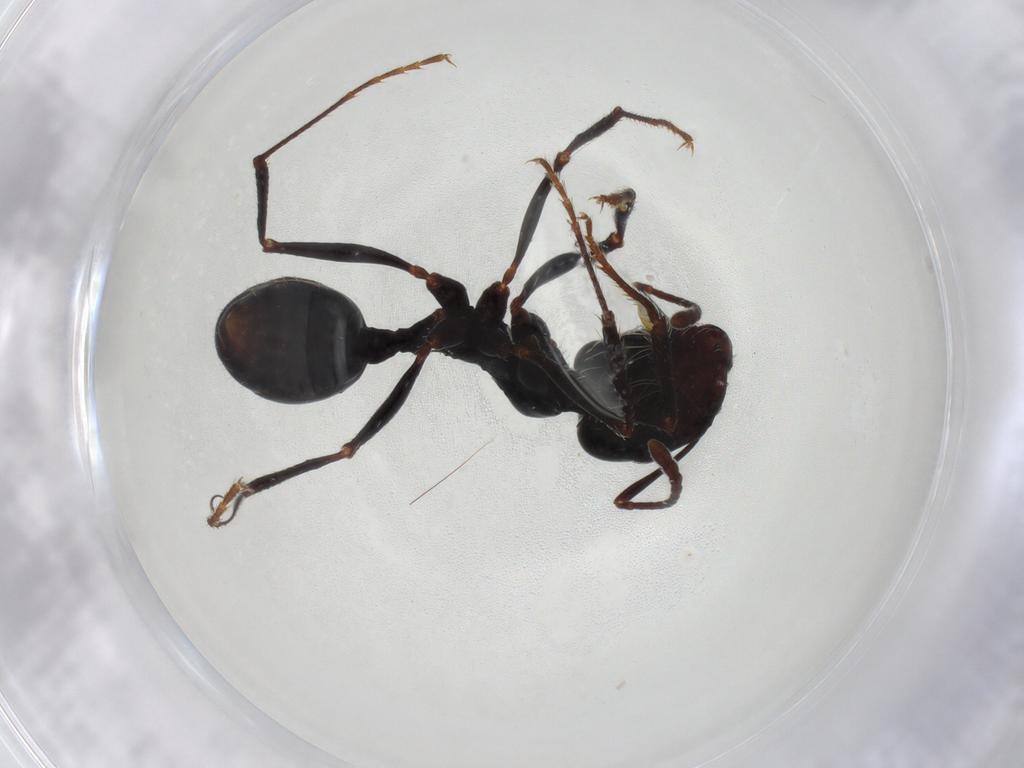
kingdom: Animalia
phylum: Arthropoda
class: Insecta
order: Hymenoptera
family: Formicidae
